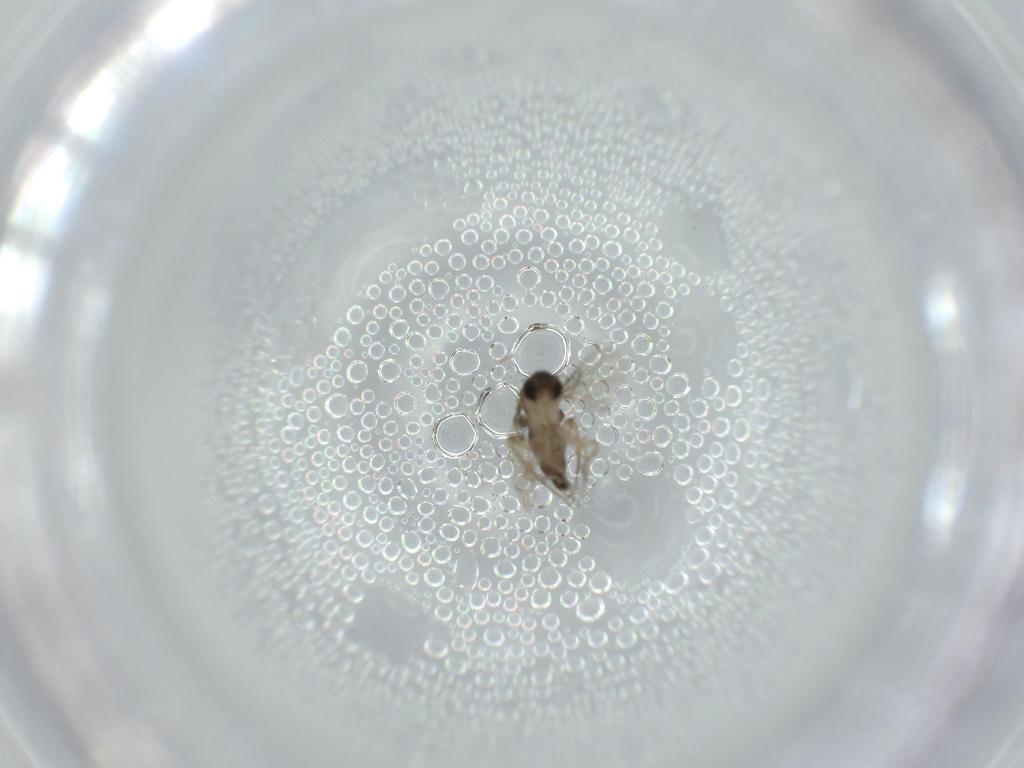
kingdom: Animalia
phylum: Arthropoda
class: Insecta
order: Diptera
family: Phoridae
